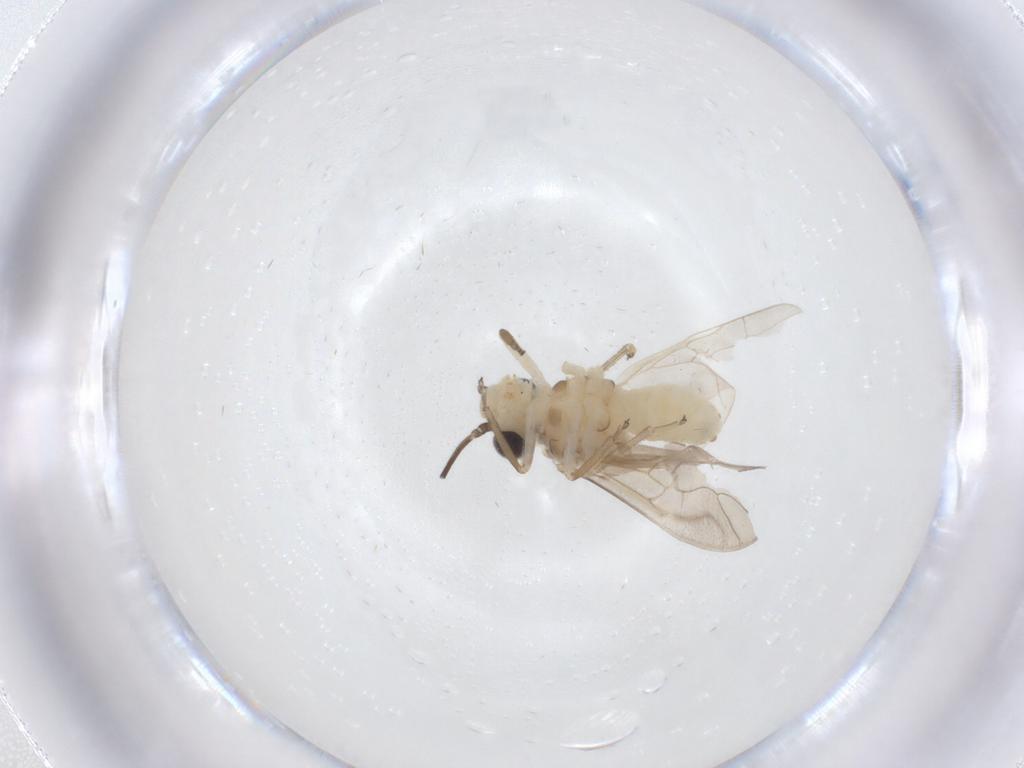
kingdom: Animalia
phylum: Arthropoda
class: Insecta
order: Psocodea
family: Caeciliusidae
